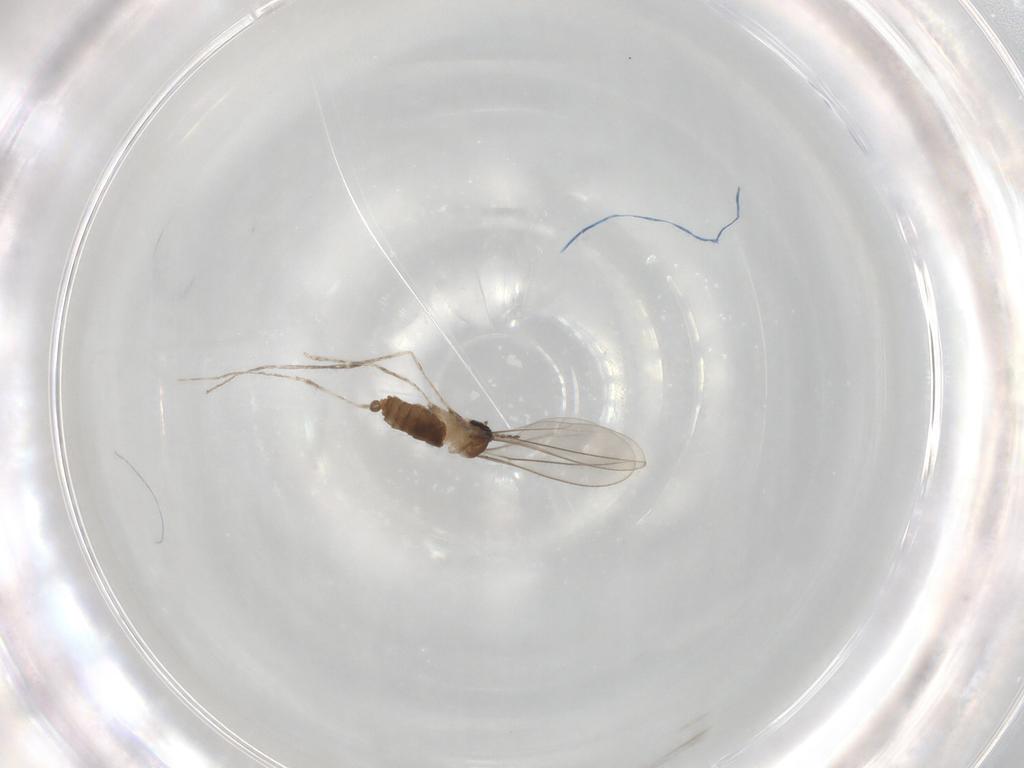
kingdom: Animalia
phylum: Arthropoda
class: Insecta
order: Diptera
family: Cecidomyiidae
